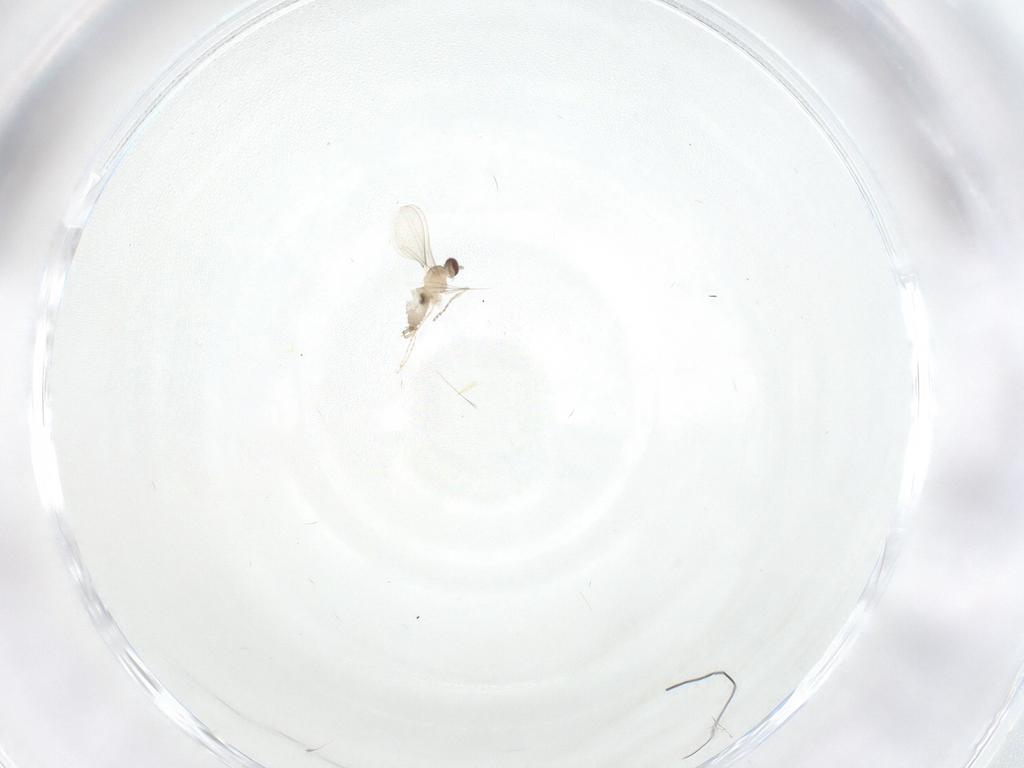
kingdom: Animalia
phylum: Arthropoda
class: Insecta
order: Diptera
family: Cecidomyiidae
